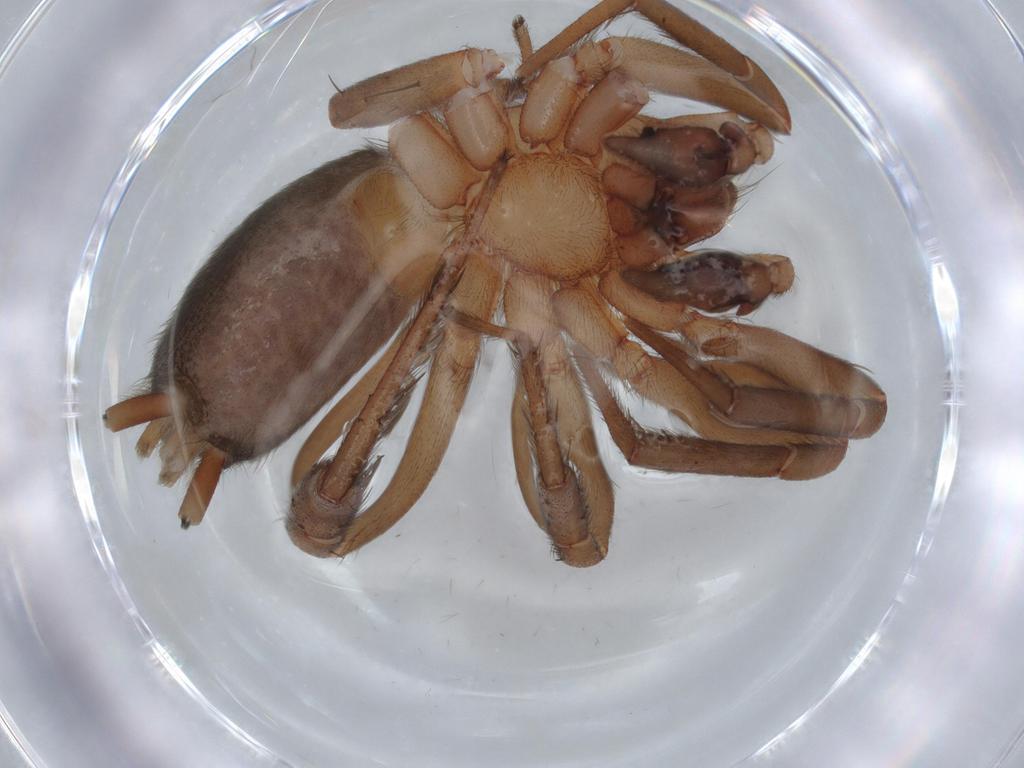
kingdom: Animalia
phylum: Arthropoda
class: Arachnida
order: Araneae
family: Gnaphosidae
